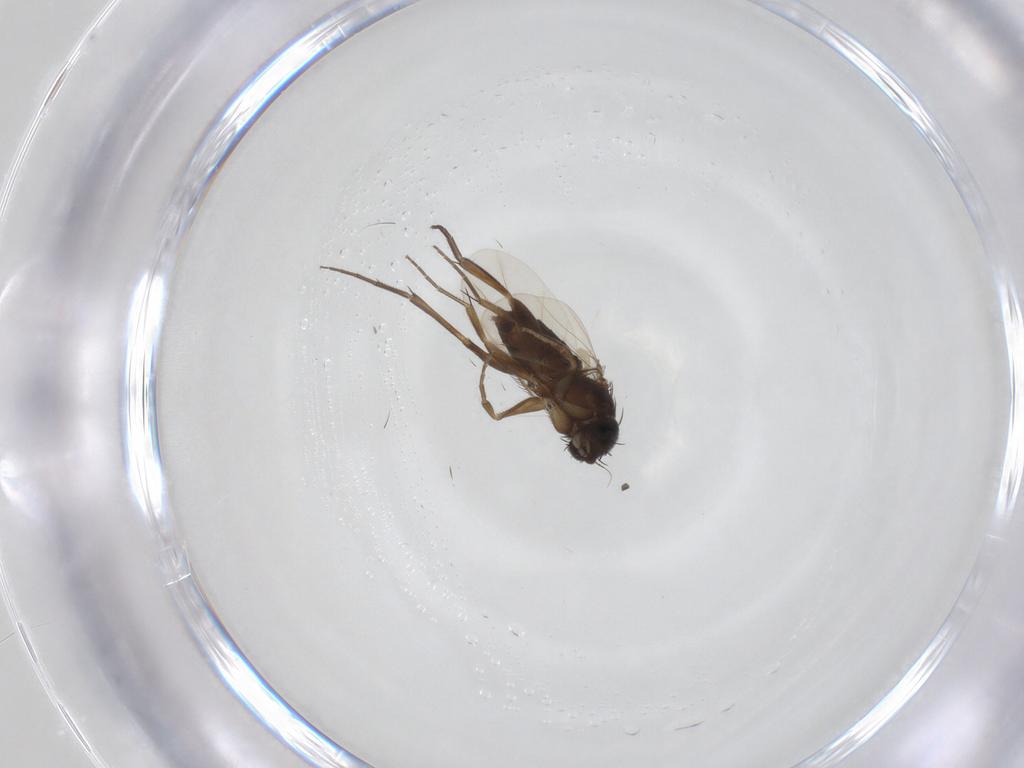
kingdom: Animalia
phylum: Arthropoda
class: Insecta
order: Diptera
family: Phoridae
